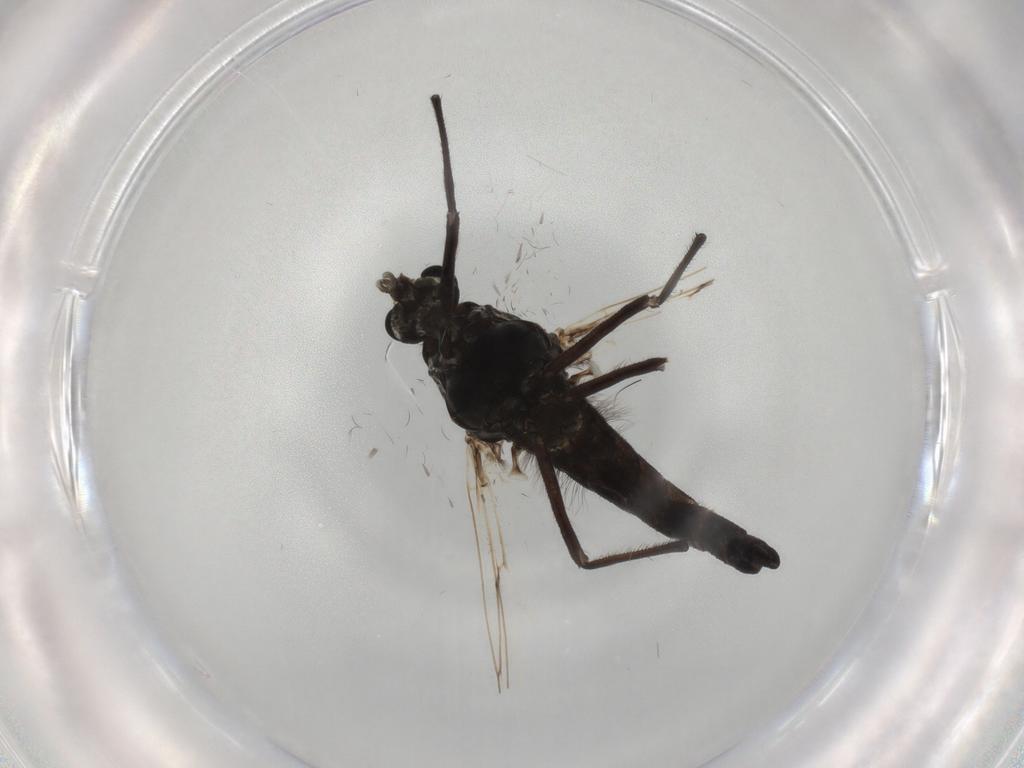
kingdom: Animalia
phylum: Arthropoda
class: Insecta
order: Diptera
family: Chironomidae
